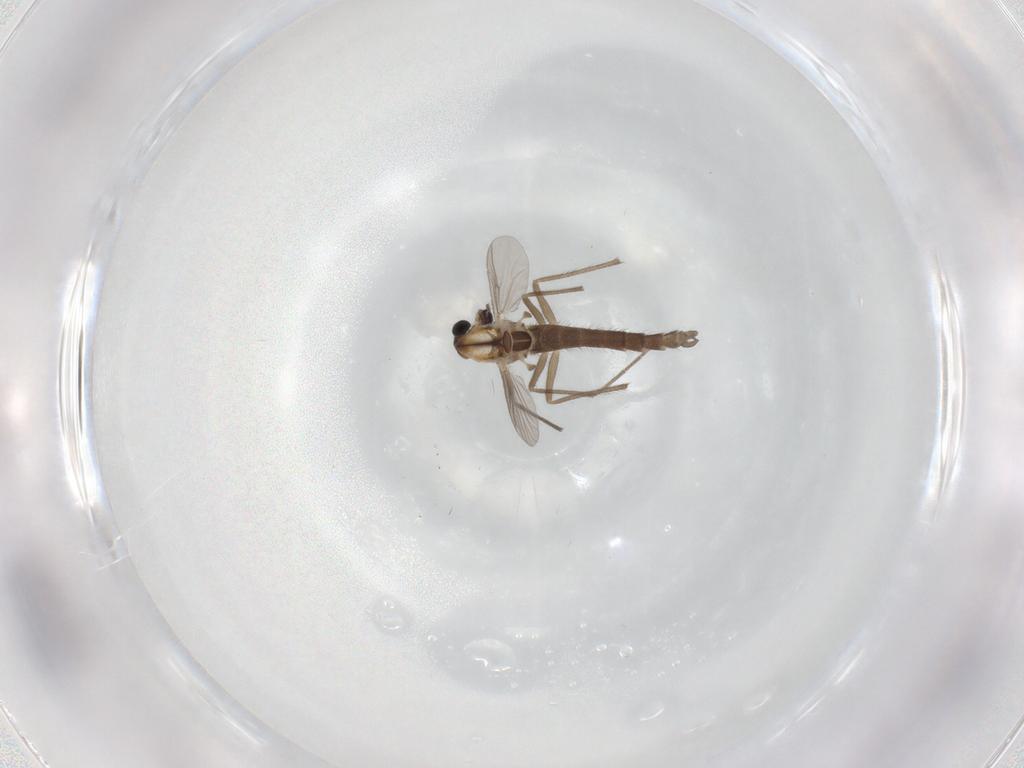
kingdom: Animalia
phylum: Arthropoda
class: Insecta
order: Diptera
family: Chironomidae
